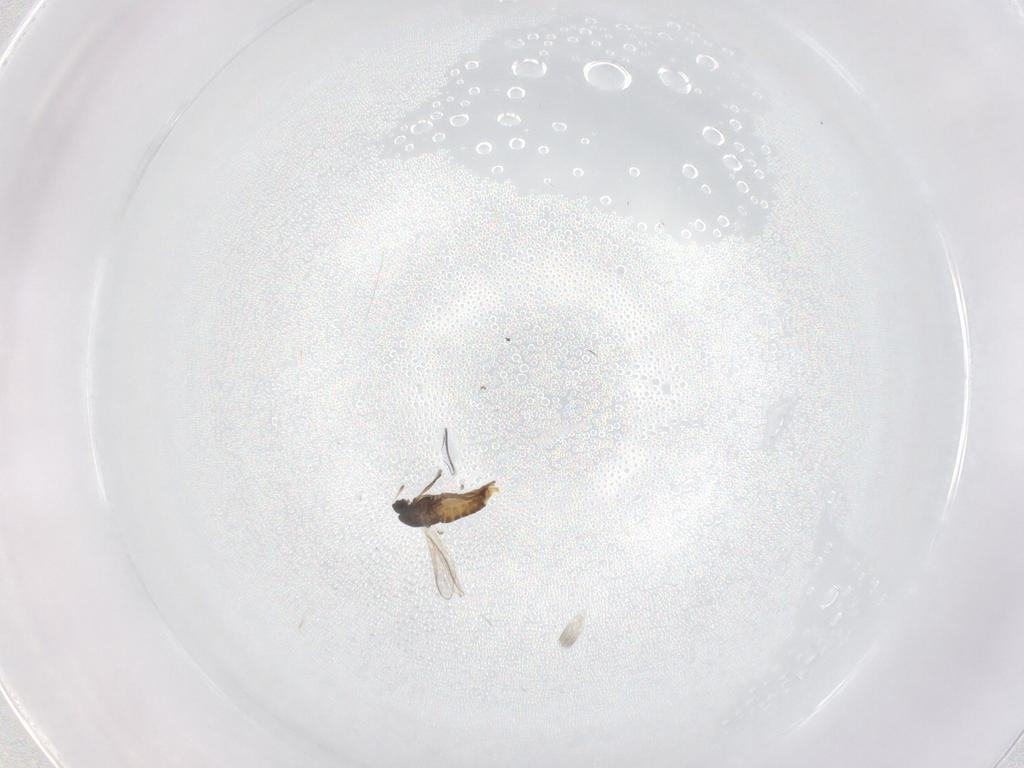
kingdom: Animalia
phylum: Arthropoda
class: Insecta
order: Diptera
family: Chironomidae
